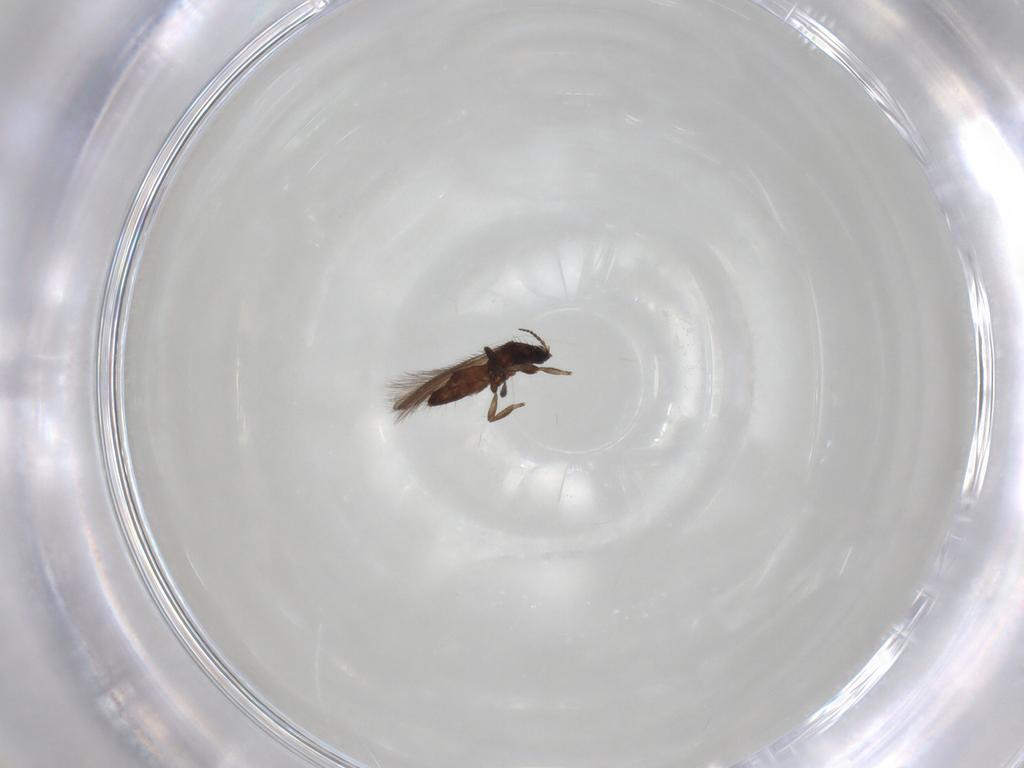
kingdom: Animalia
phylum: Arthropoda
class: Insecta
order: Thysanoptera
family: Melanthripidae
